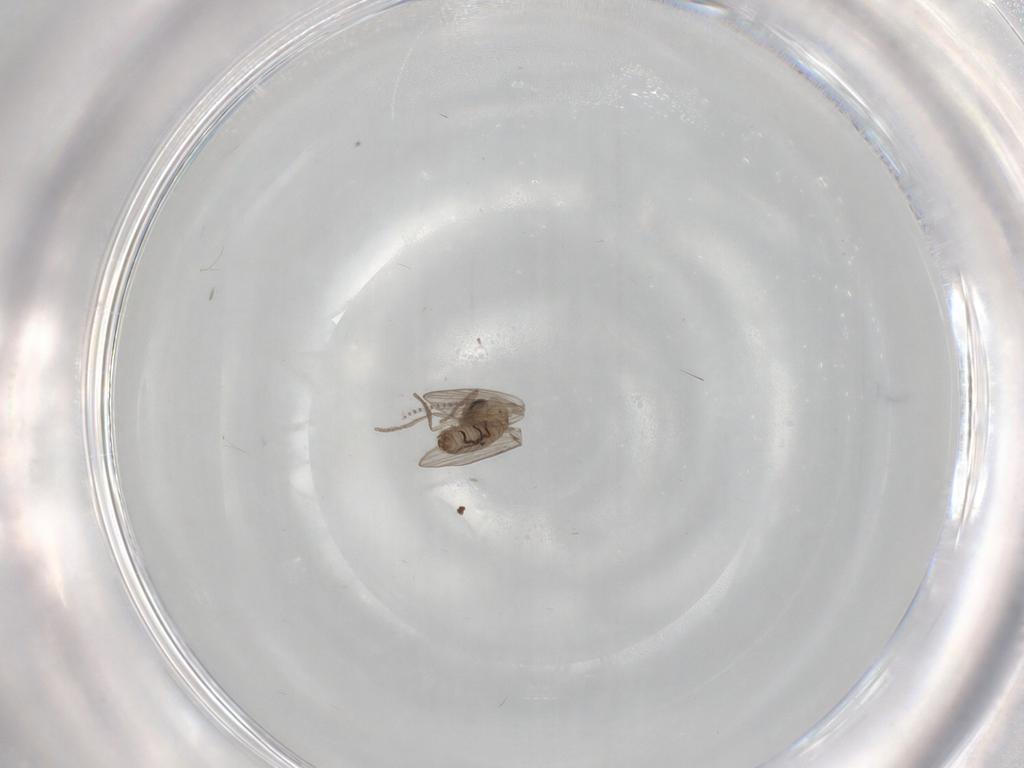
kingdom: Animalia
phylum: Arthropoda
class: Insecta
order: Diptera
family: Psychodidae
